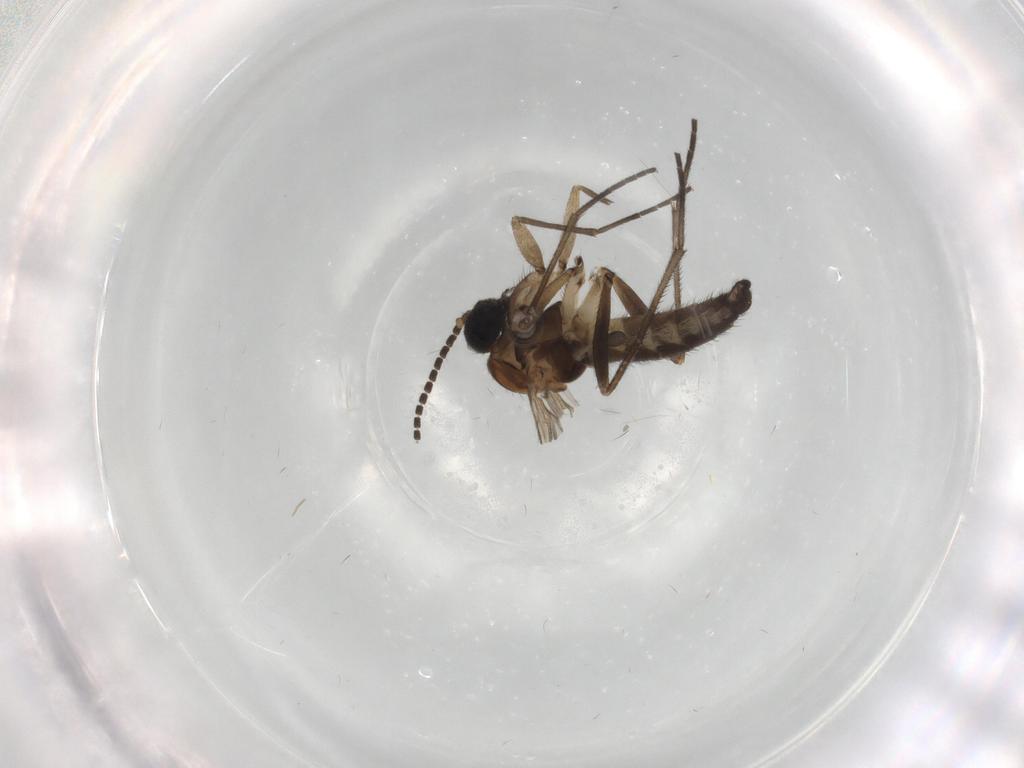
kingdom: Animalia
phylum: Arthropoda
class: Insecta
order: Diptera
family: Sciaridae
